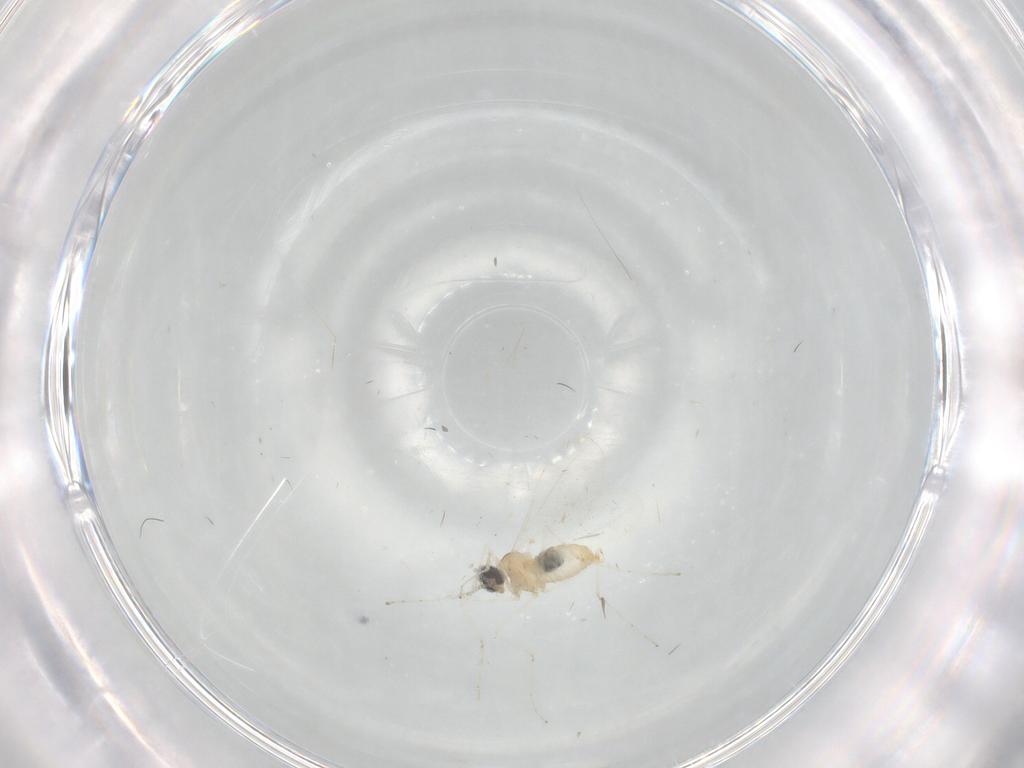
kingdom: Animalia
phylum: Arthropoda
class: Insecta
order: Diptera
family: Cecidomyiidae
